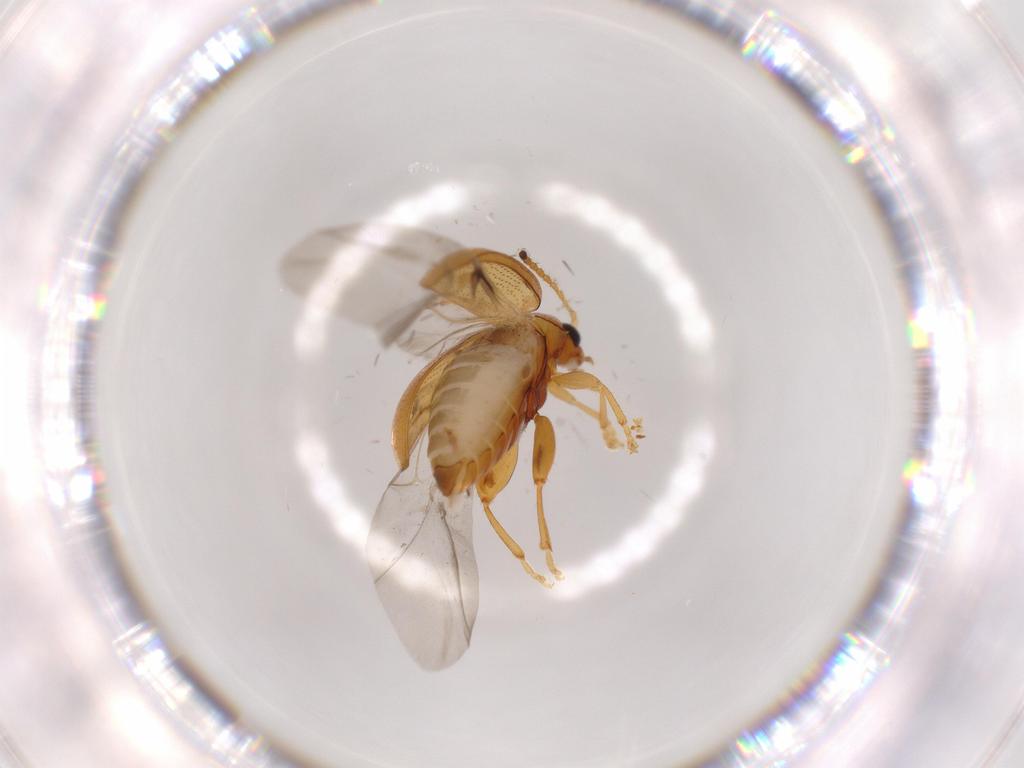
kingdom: Animalia
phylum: Arthropoda
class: Insecta
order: Coleoptera
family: Chrysomelidae
